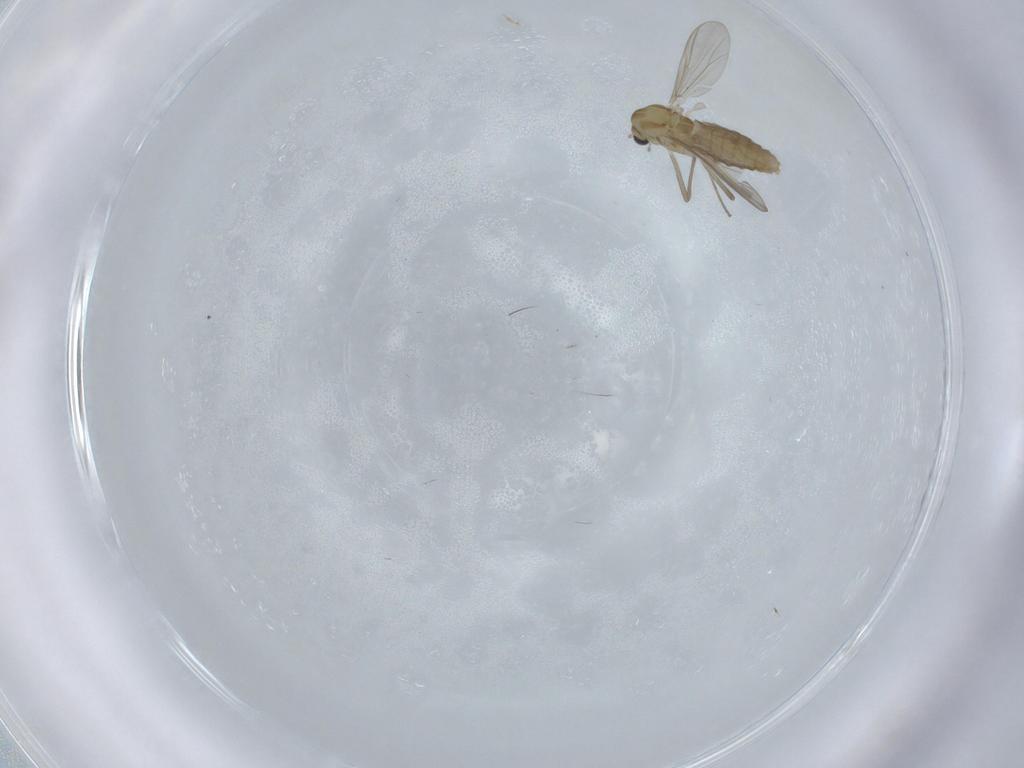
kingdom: Animalia
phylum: Arthropoda
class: Insecta
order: Diptera
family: Chironomidae
